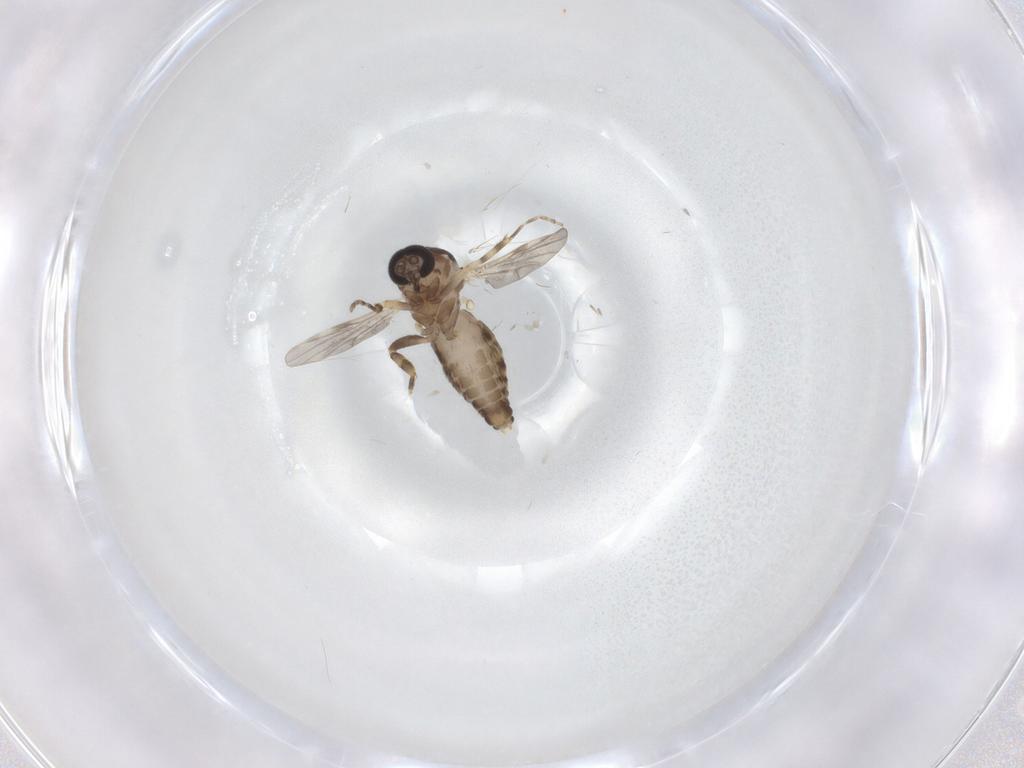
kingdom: Animalia
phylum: Arthropoda
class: Insecta
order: Diptera
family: Ceratopogonidae
